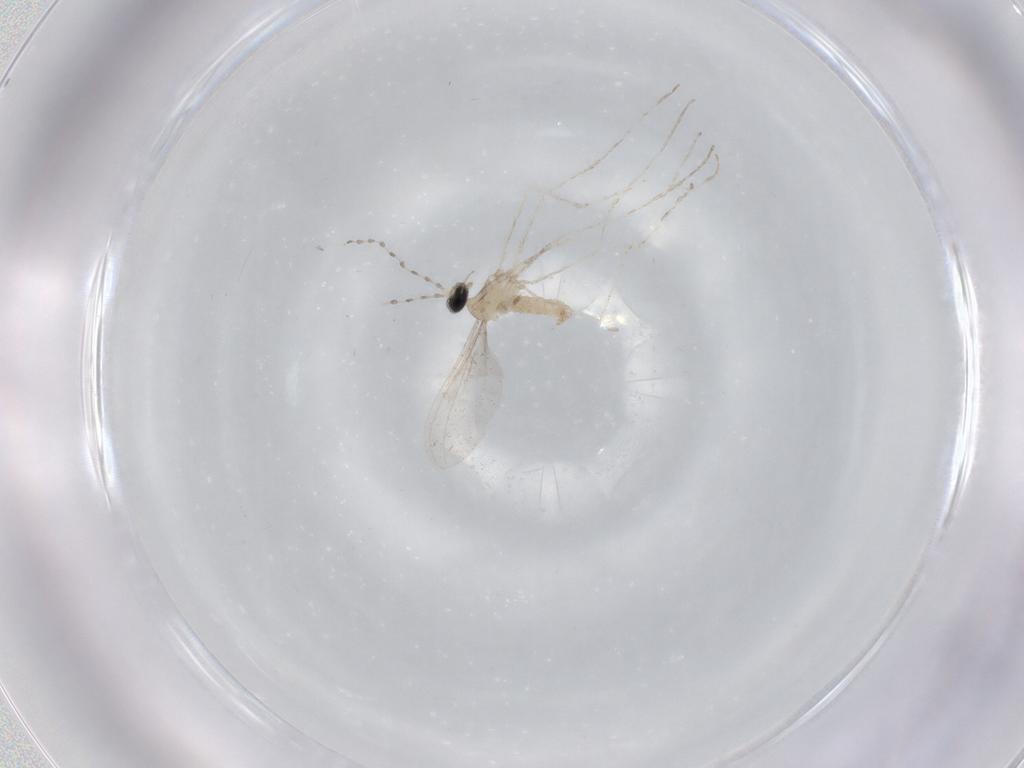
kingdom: Animalia
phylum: Arthropoda
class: Insecta
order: Diptera
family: Cecidomyiidae
